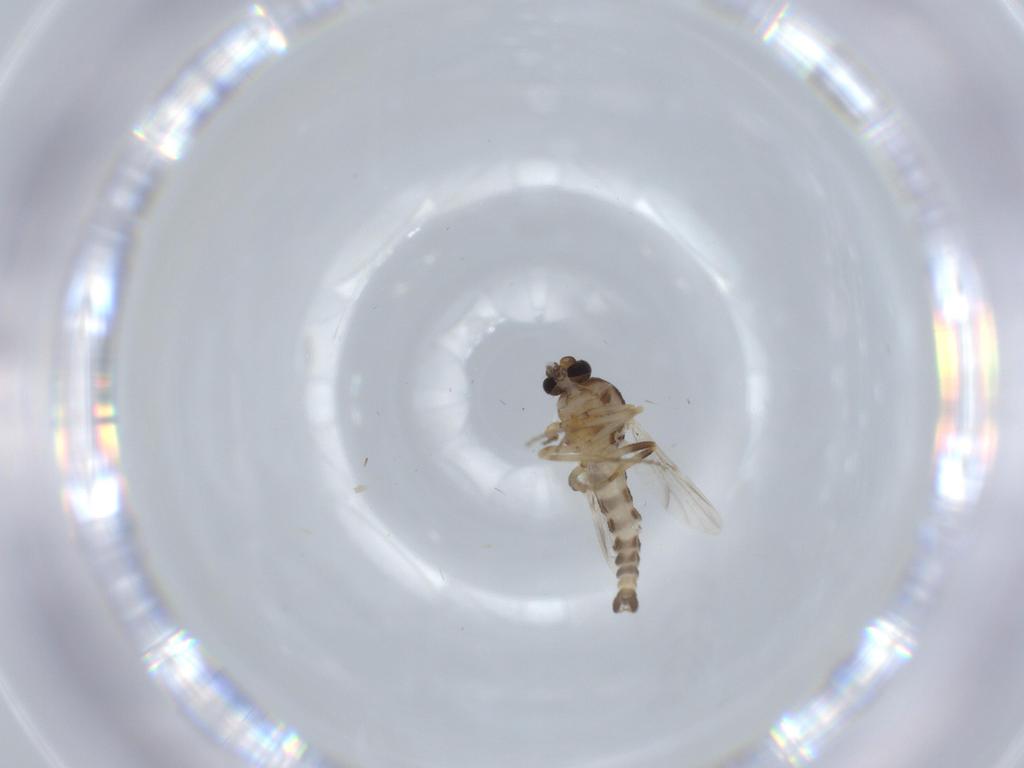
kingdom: Animalia
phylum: Arthropoda
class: Insecta
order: Diptera
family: Ceratopogonidae
